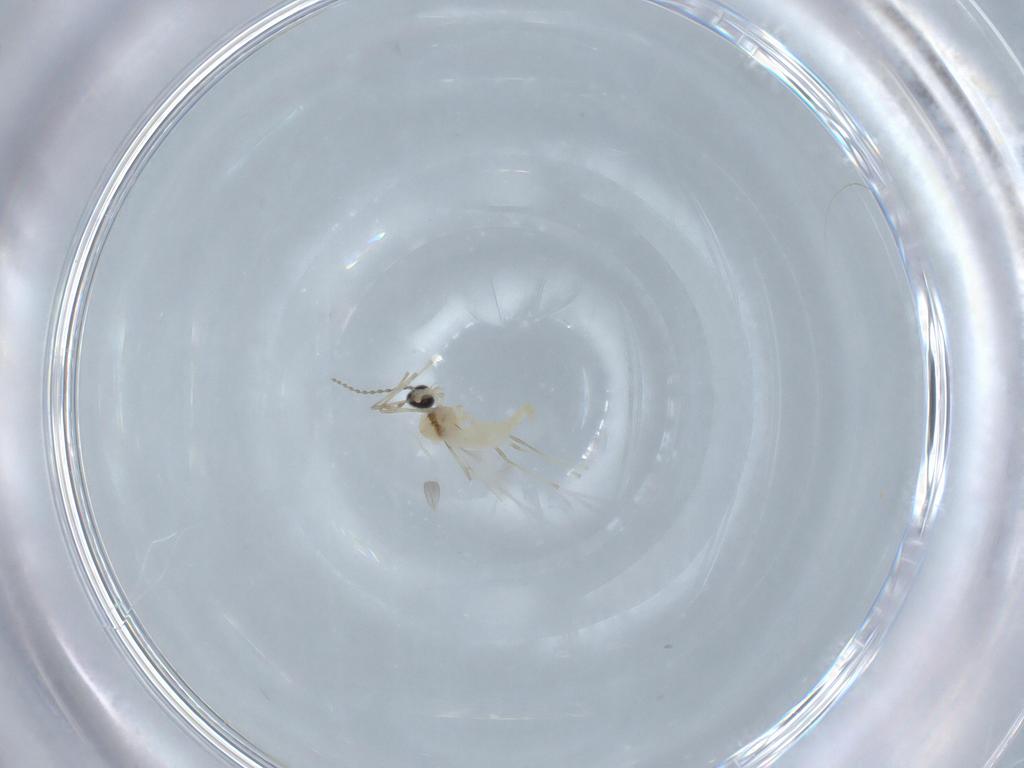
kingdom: Animalia
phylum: Arthropoda
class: Insecta
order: Diptera
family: Cecidomyiidae
